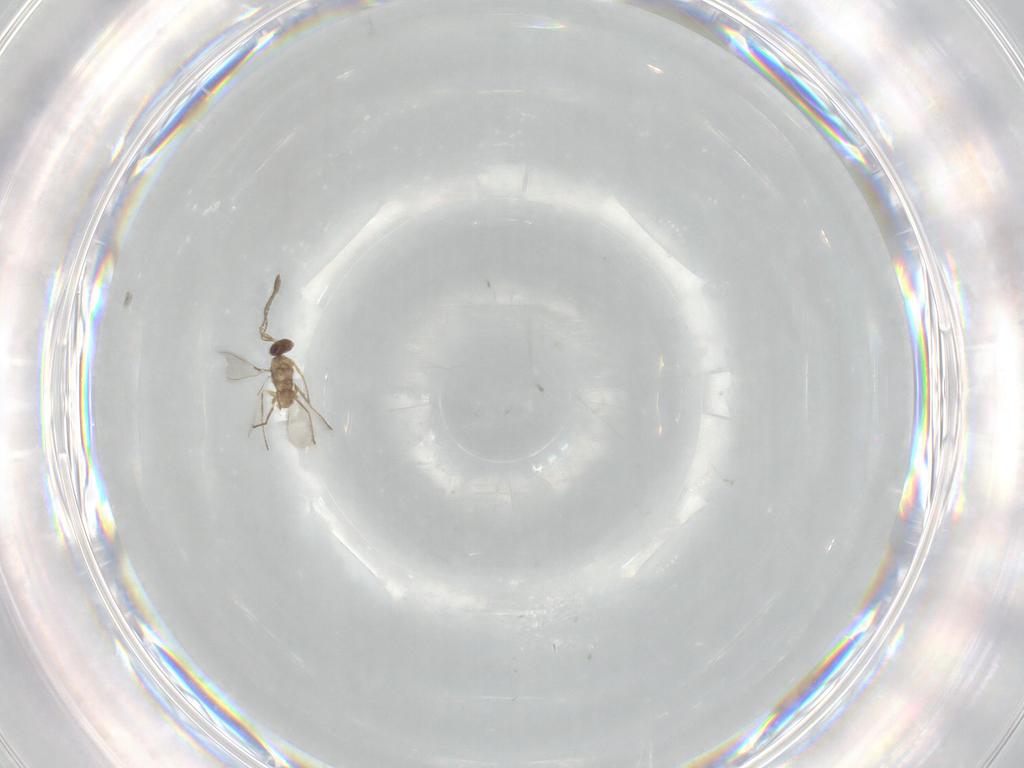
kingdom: Animalia
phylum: Arthropoda
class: Insecta
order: Hymenoptera
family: Mymaridae
